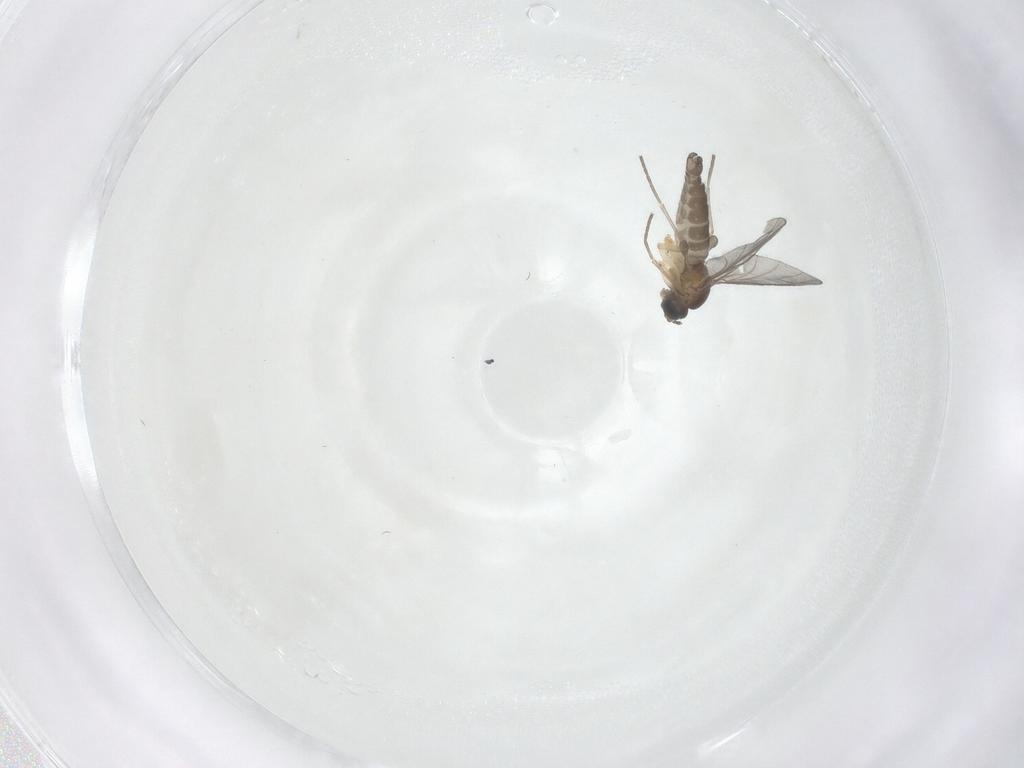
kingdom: Animalia
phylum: Arthropoda
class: Insecta
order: Diptera
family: Sciaridae
